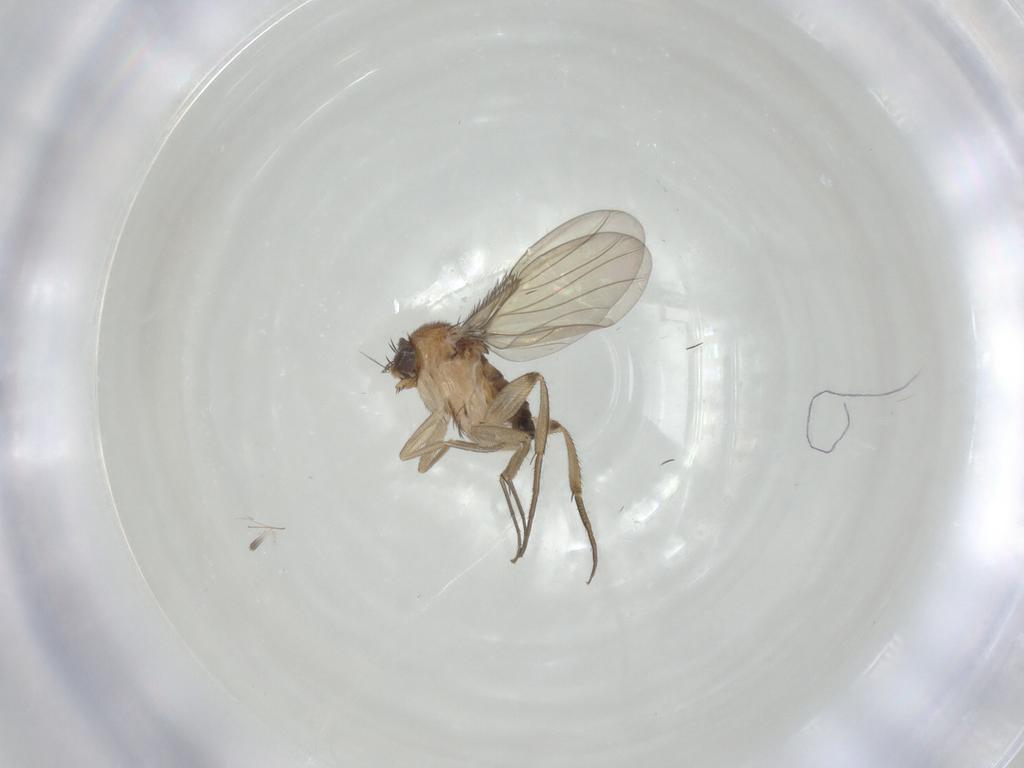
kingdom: Animalia
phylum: Arthropoda
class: Insecta
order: Diptera
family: Phoridae
